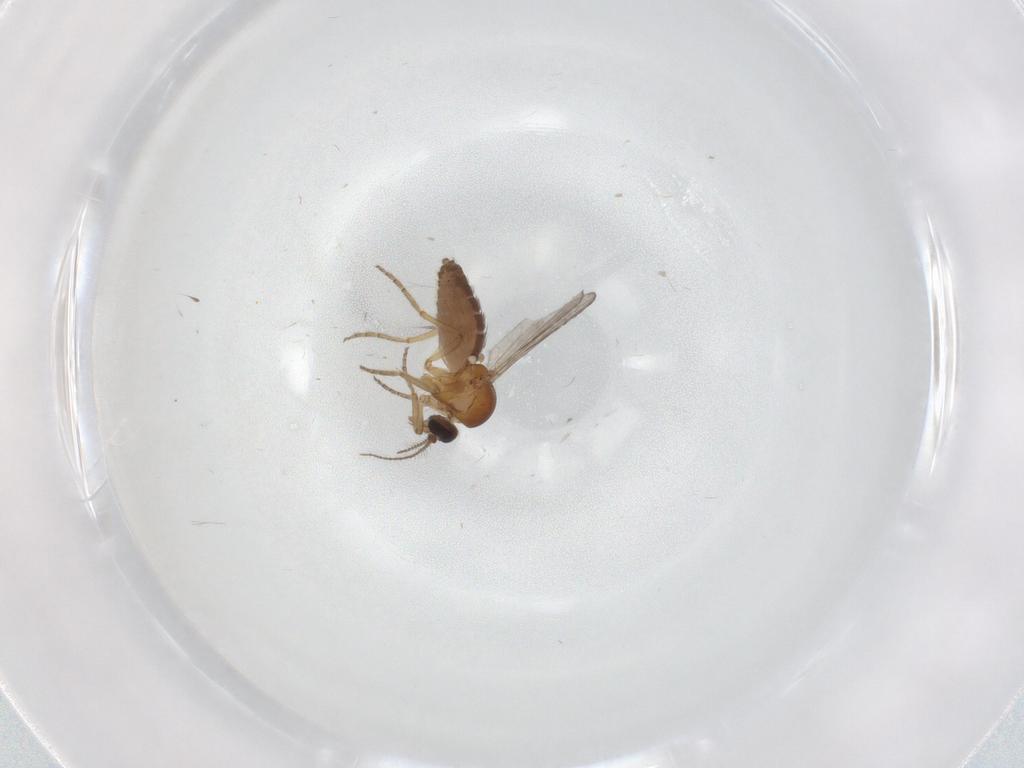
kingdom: Animalia
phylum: Arthropoda
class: Insecta
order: Diptera
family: Ceratopogonidae
